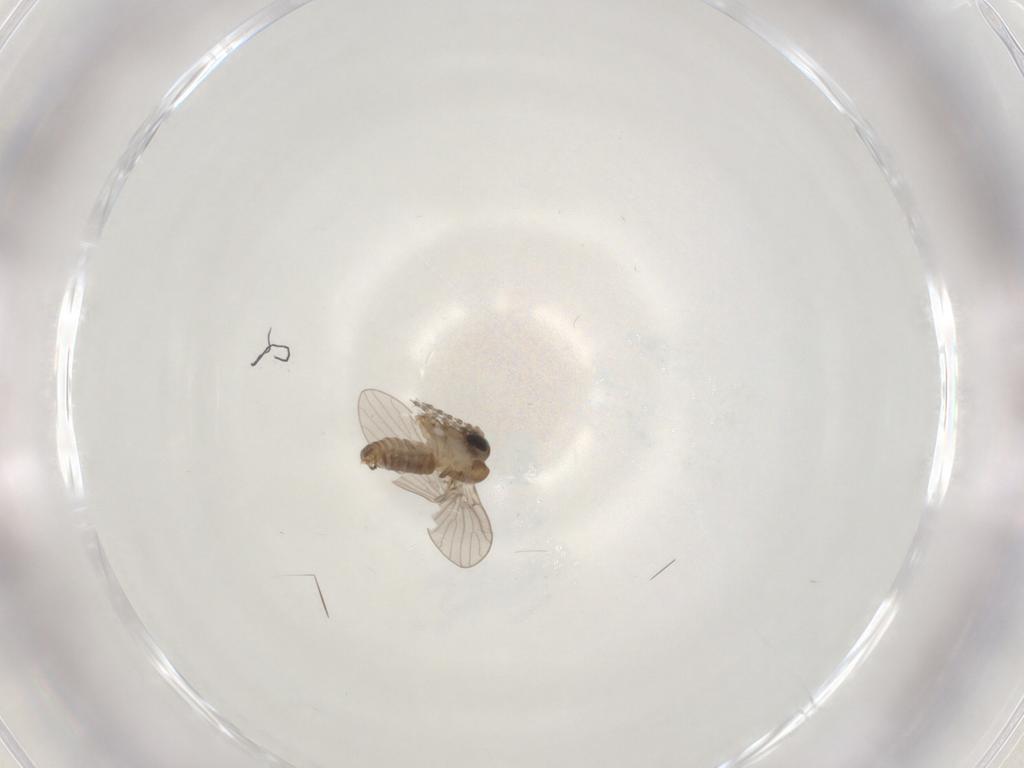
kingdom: Animalia
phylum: Arthropoda
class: Insecta
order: Diptera
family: Psychodidae
